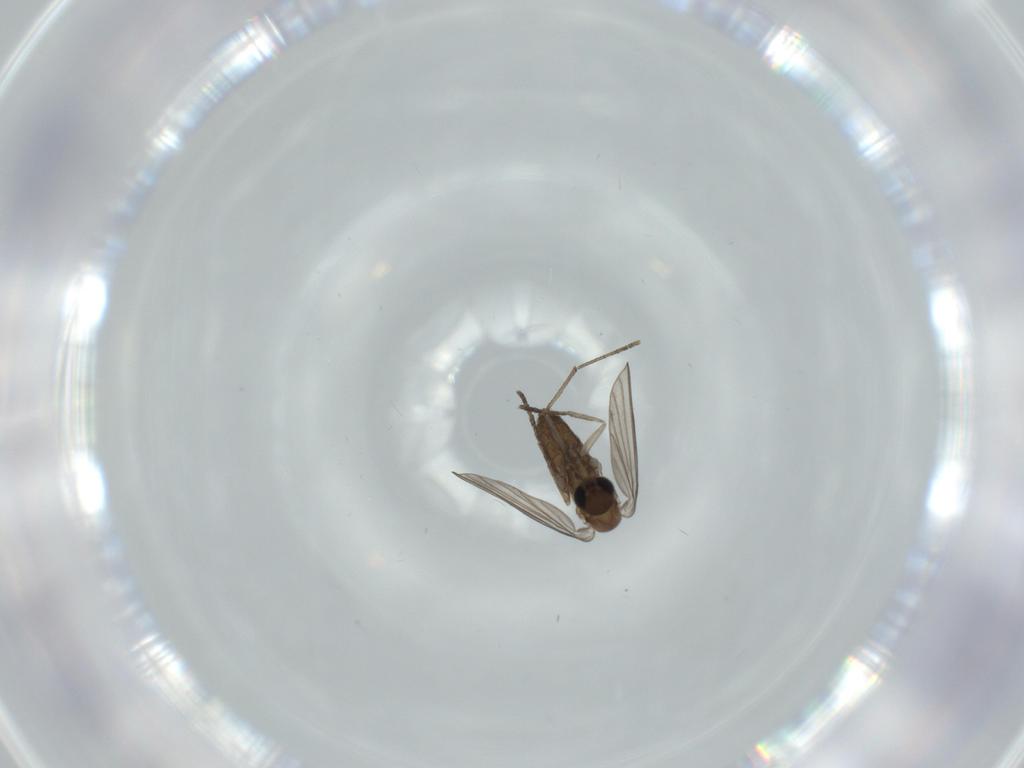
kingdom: Animalia
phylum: Arthropoda
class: Insecta
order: Diptera
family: Psychodidae
